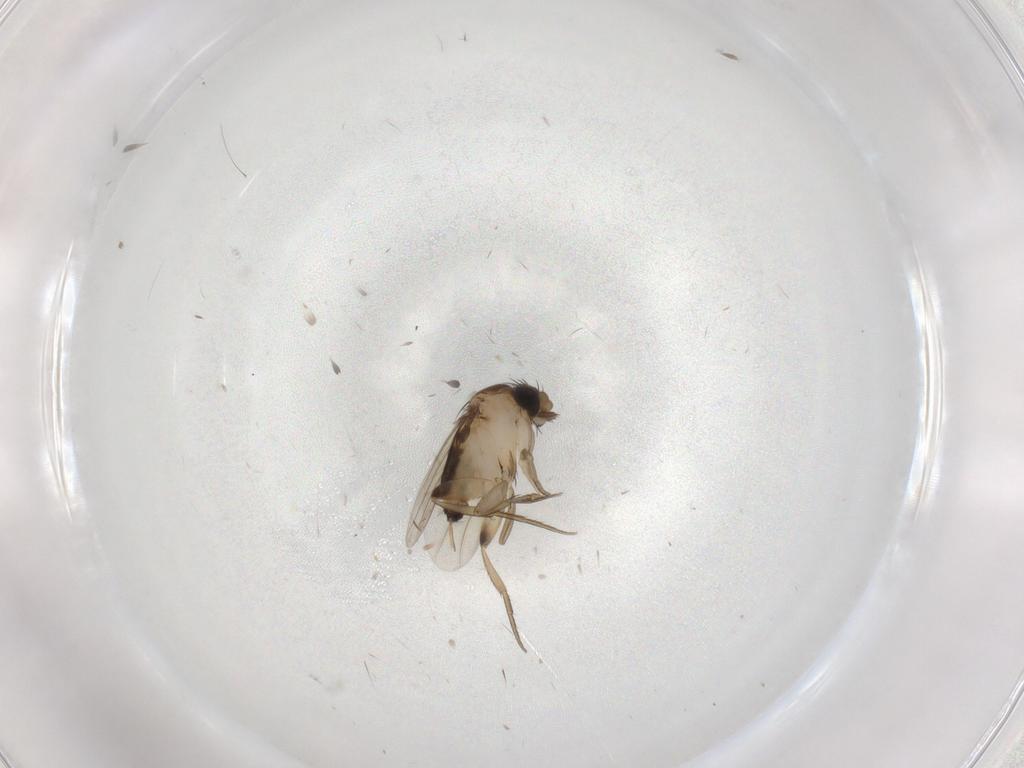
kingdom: Animalia
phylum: Arthropoda
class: Insecta
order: Diptera
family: Phoridae
